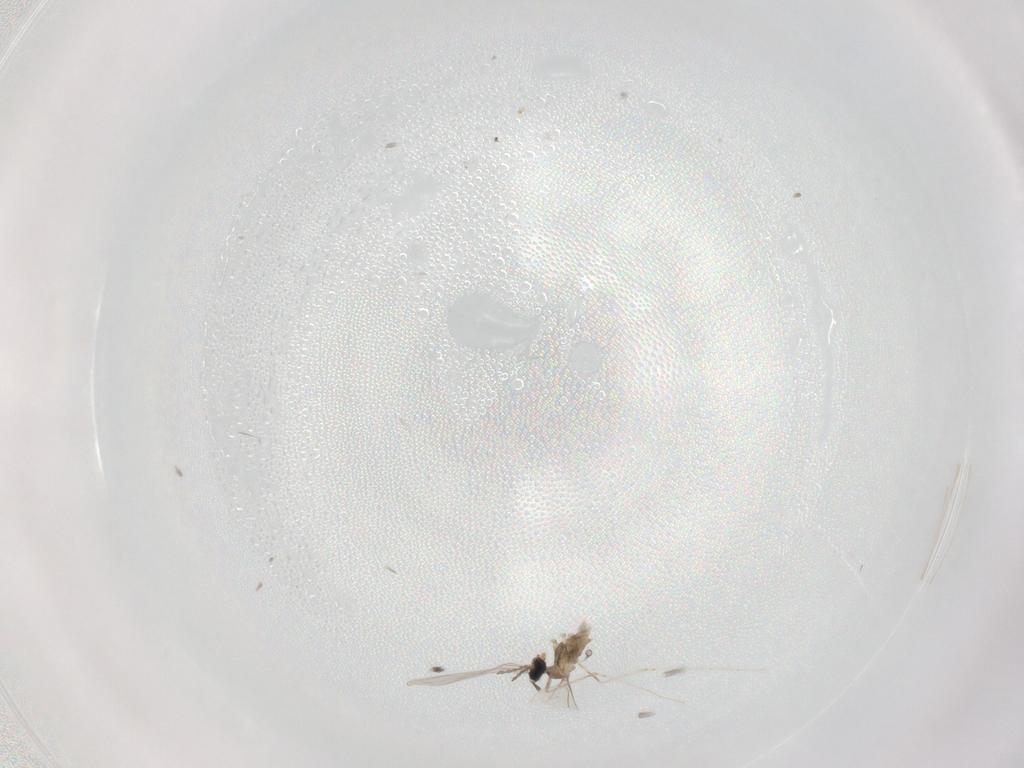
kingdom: Animalia
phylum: Arthropoda
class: Insecta
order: Diptera
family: Cecidomyiidae
